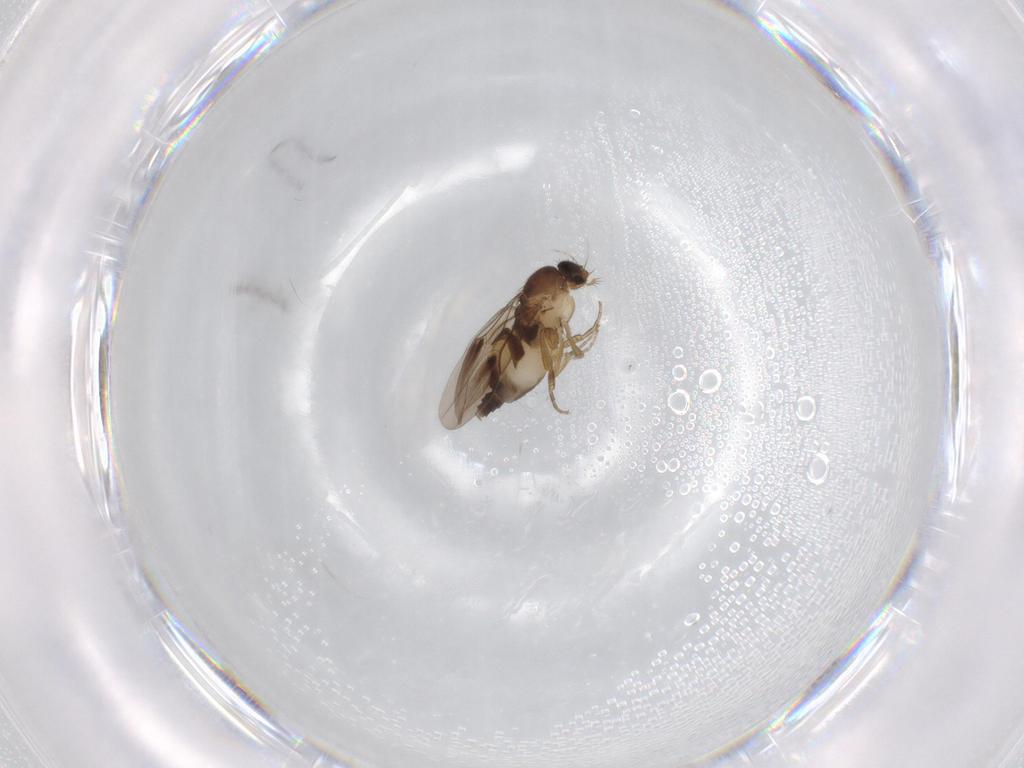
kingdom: Animalia
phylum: Arthropoda
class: Insecta
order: Diptera
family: Phoridae
